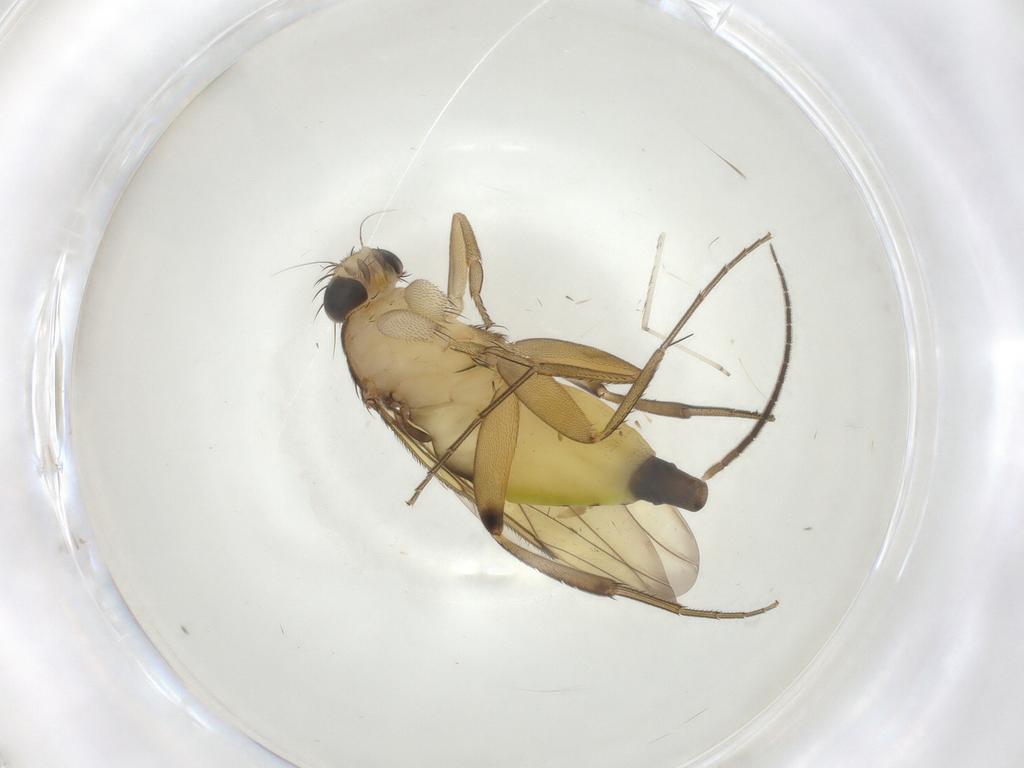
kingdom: Animalia
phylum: Arthropoda
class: Insecta
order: Diptera
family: Phoridae
